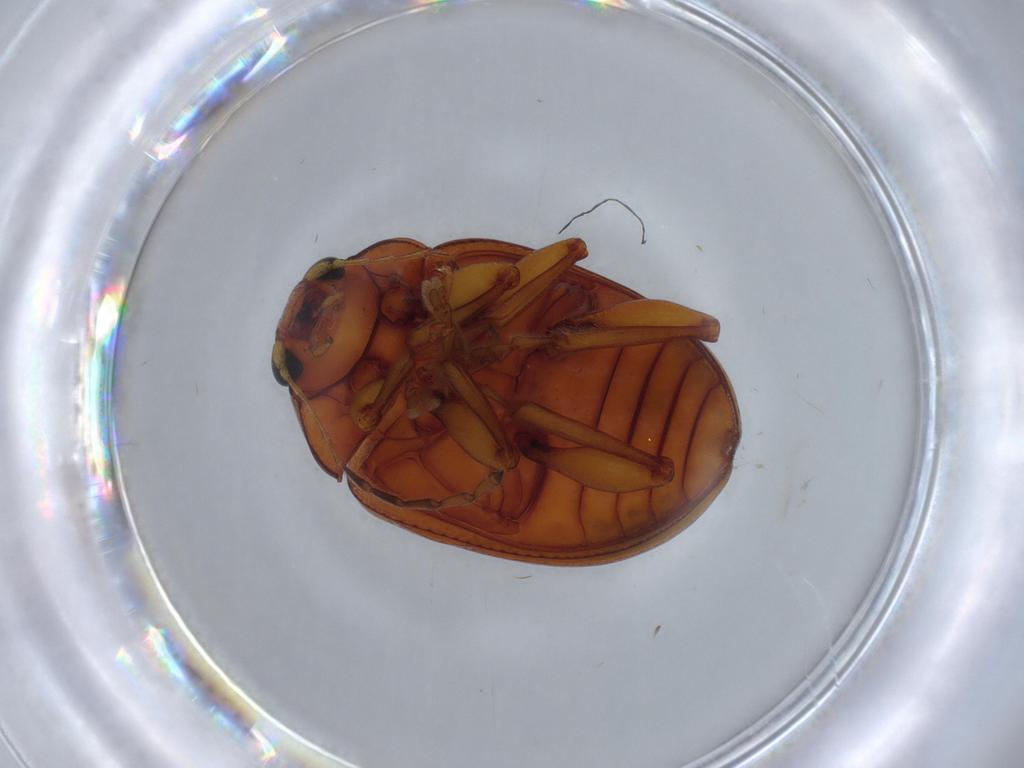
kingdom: Animalia
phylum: Arthropoda
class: Insecta
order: Coleoptera
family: Chrysomelidae
